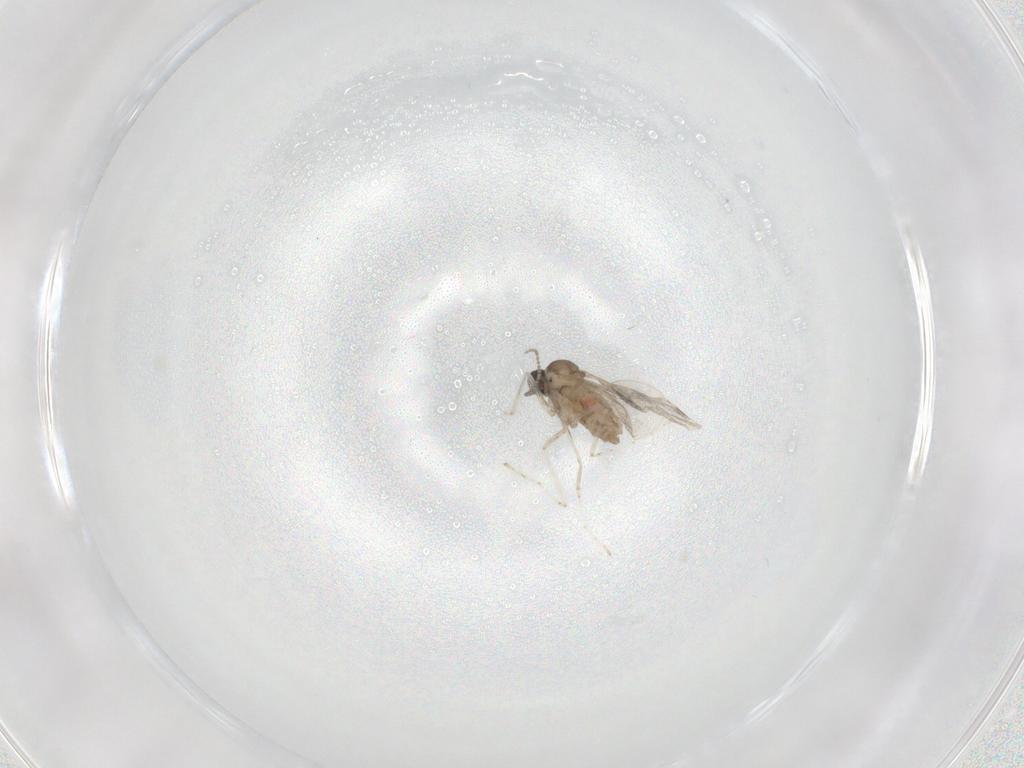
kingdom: Animalia
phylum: Arthropoda
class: Insecta
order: Diptera
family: Cecidomyiidae
